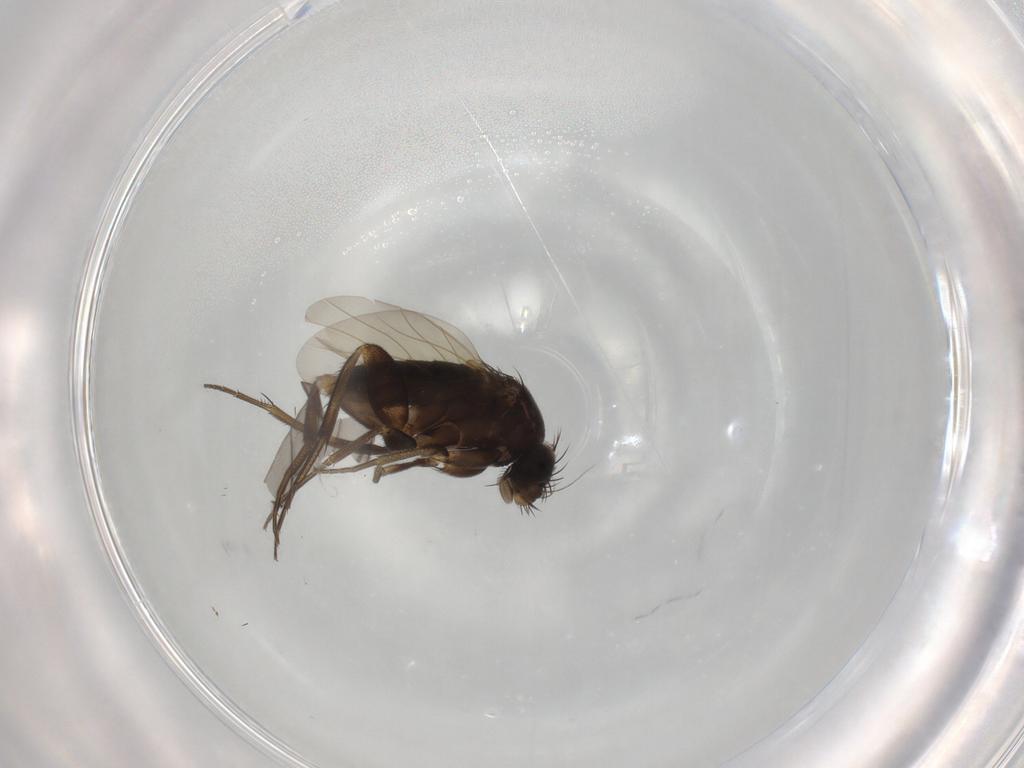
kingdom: Animalia
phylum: Arthropoda
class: Insecta
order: Diptera
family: Phoridae
